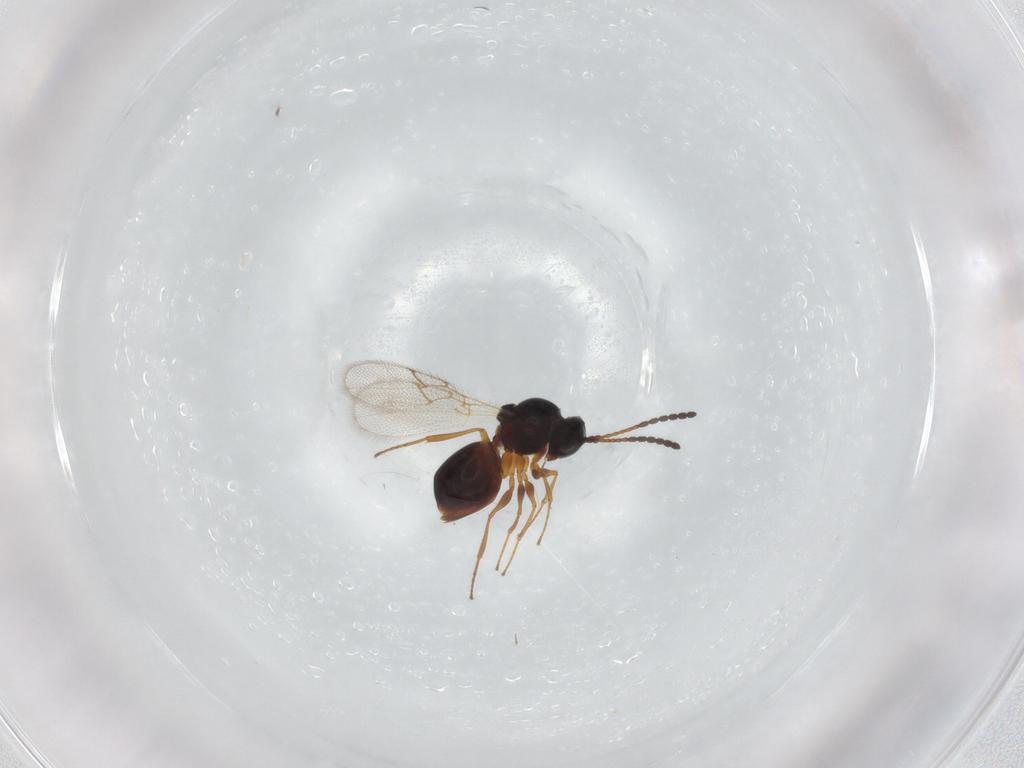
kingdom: Animalia
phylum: Arthropoda
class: Insecta
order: Hymenoptera
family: Figitidae
